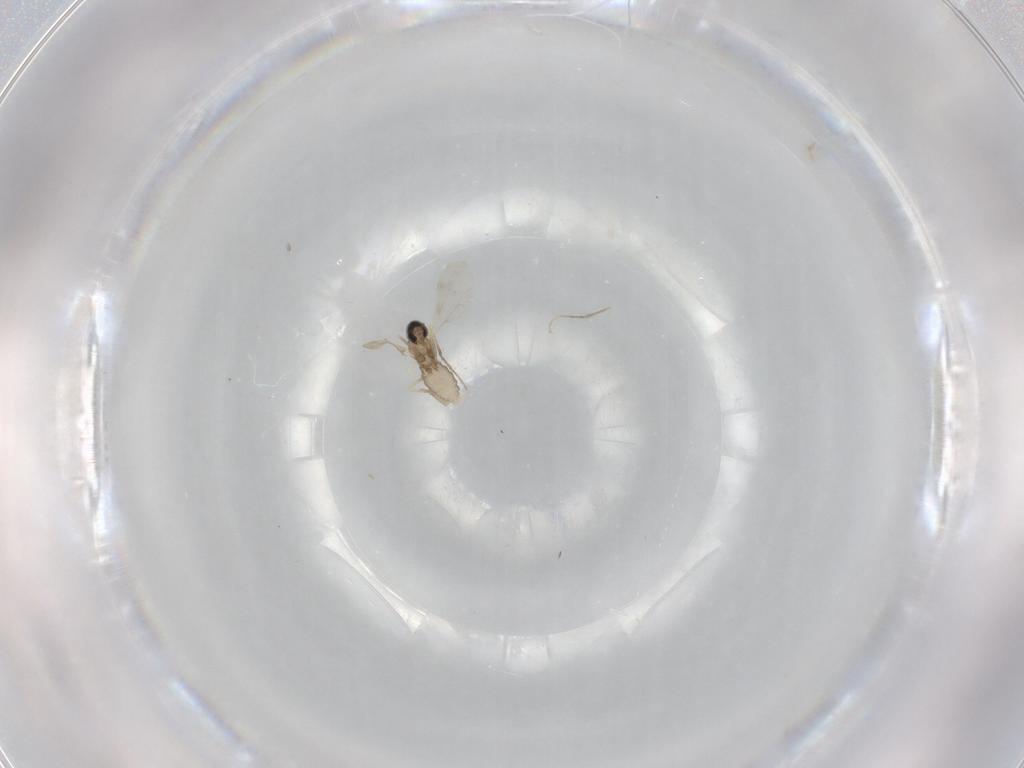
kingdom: Animalia
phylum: Arthropoda
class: Insecta
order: Diptera
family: Cecidomyiidae
